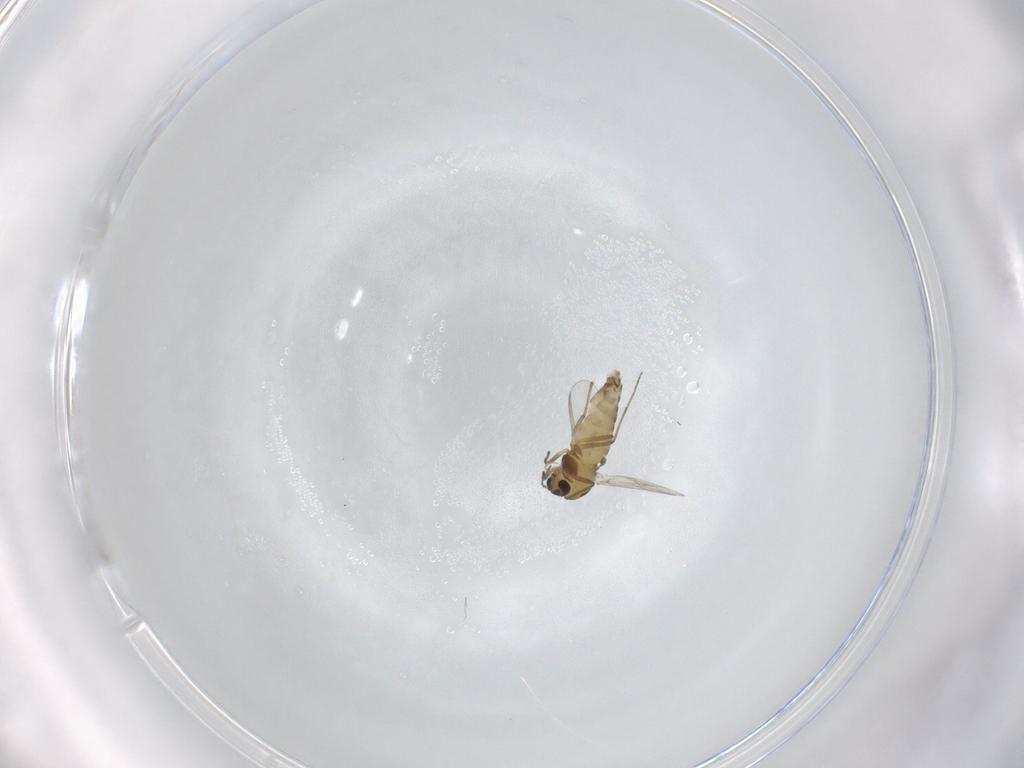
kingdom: Animalia
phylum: Arthropoda
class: Insecta
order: Diptera
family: Chironomidae
